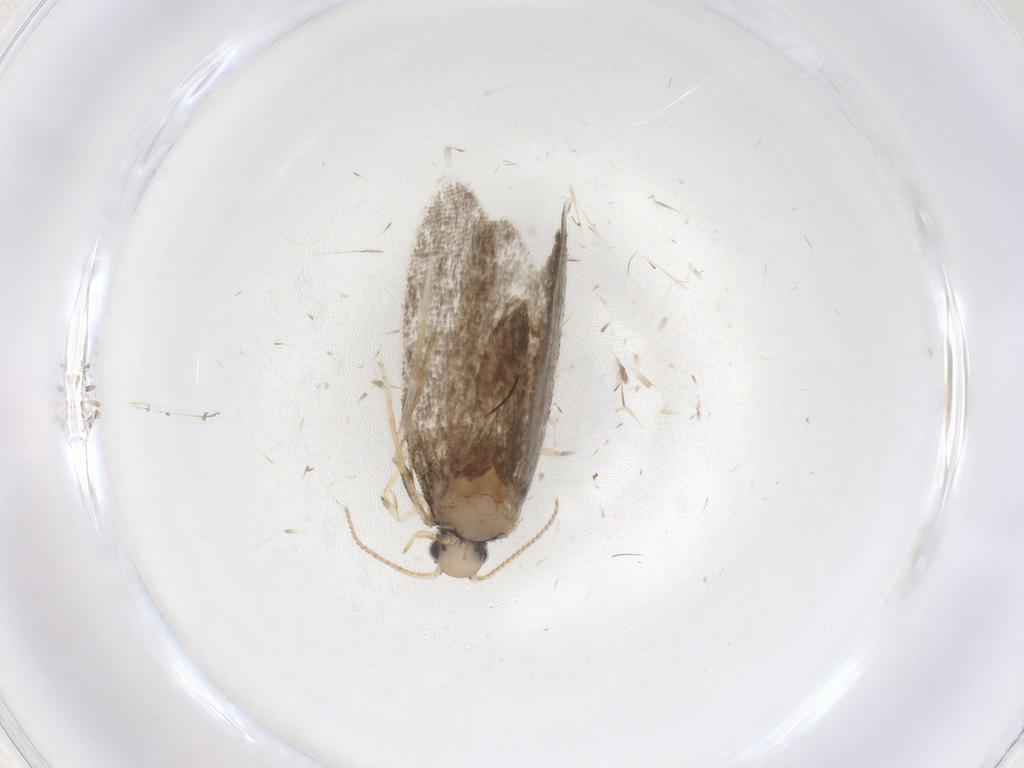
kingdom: Animalia
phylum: Arthropoda
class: Insecta
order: Lepidoptera
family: Psychidae
